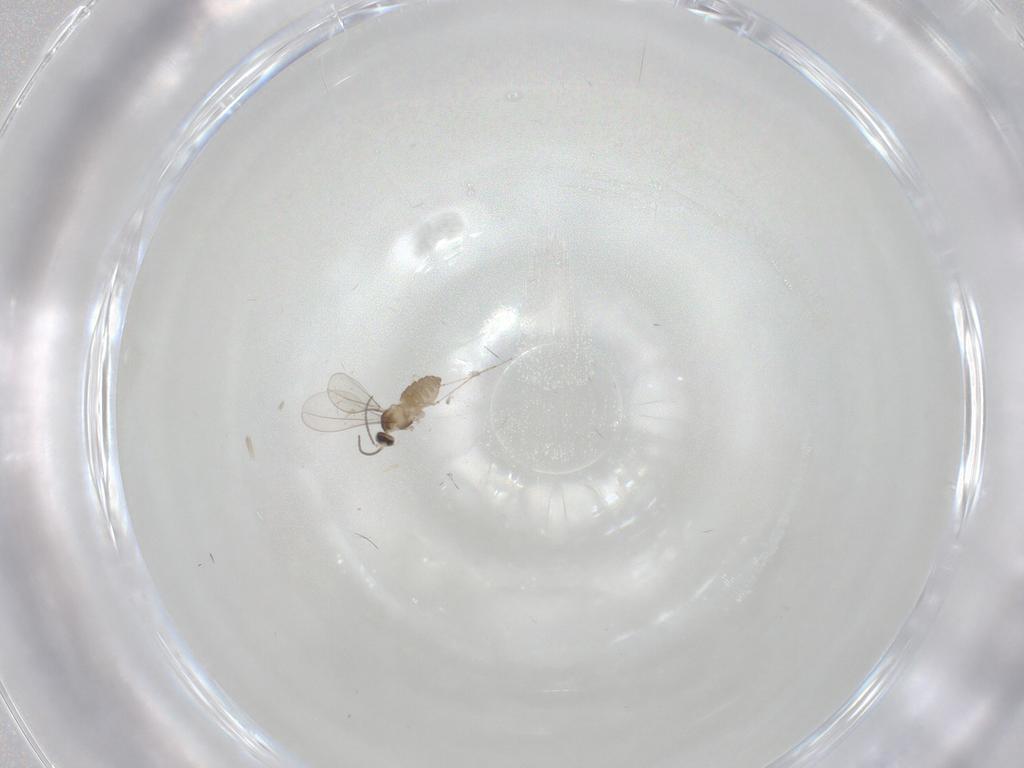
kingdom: Animalia
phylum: Arthropoda
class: Insecta
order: Diptera
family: Cecidomyiidae
